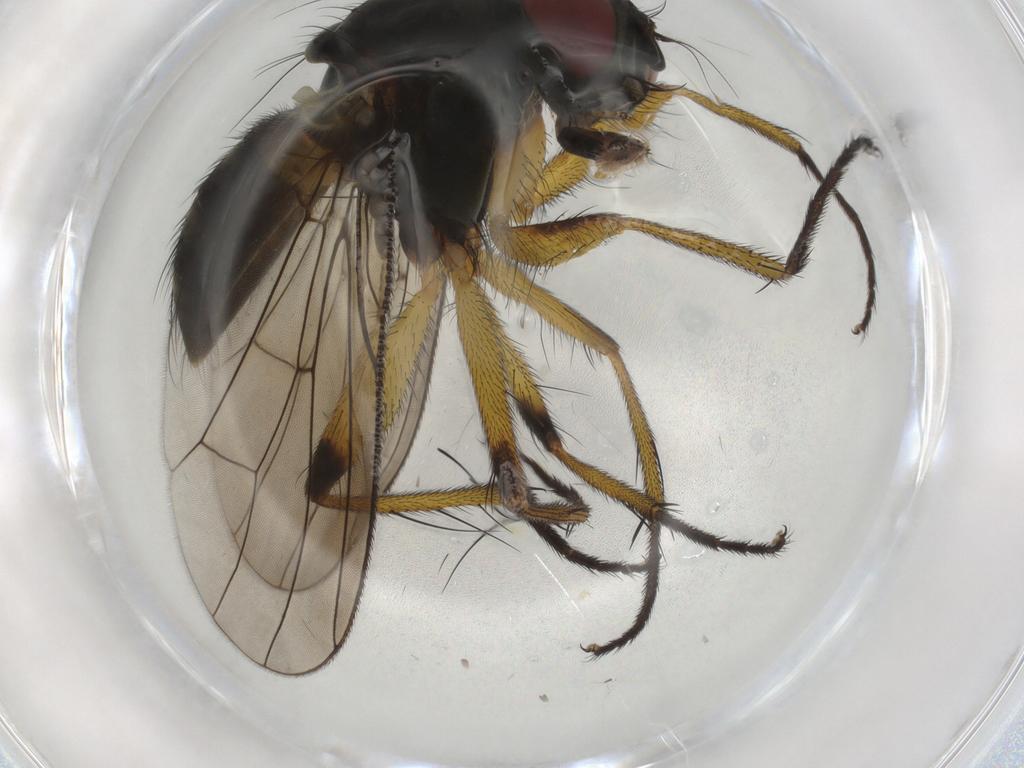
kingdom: Animalia
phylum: Arthropoda
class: Insecta
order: Diptera
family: Muscidae
